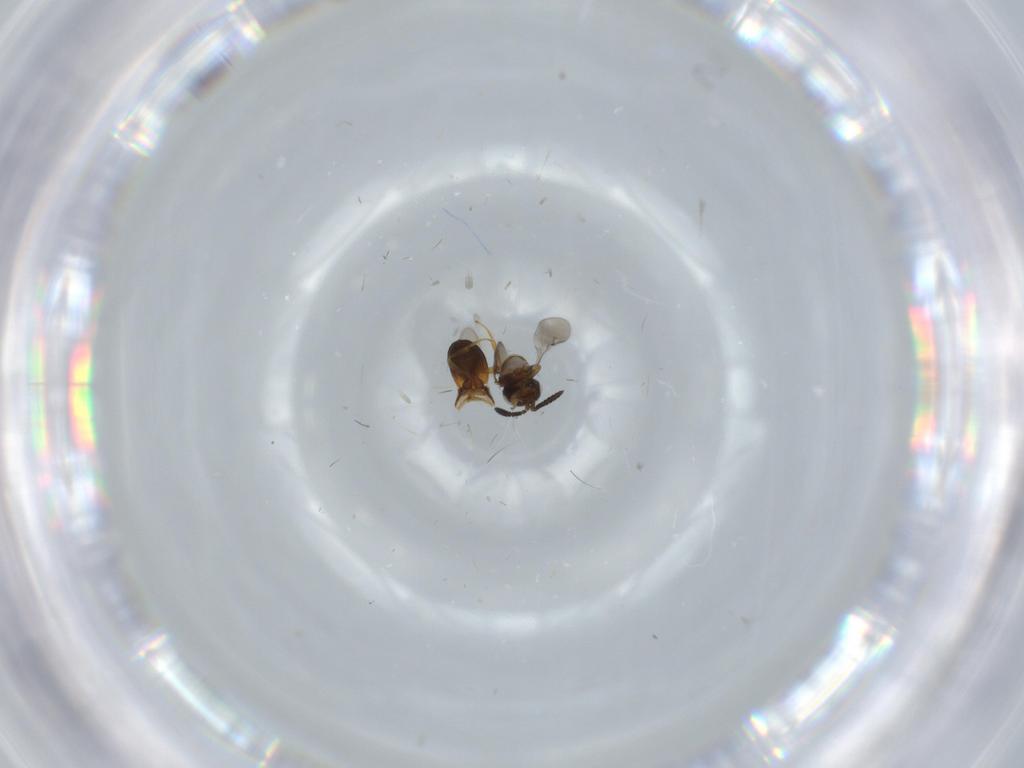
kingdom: Animalia
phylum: Arthropoda
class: Insecta
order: Hymenoptera
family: Scelionidae
